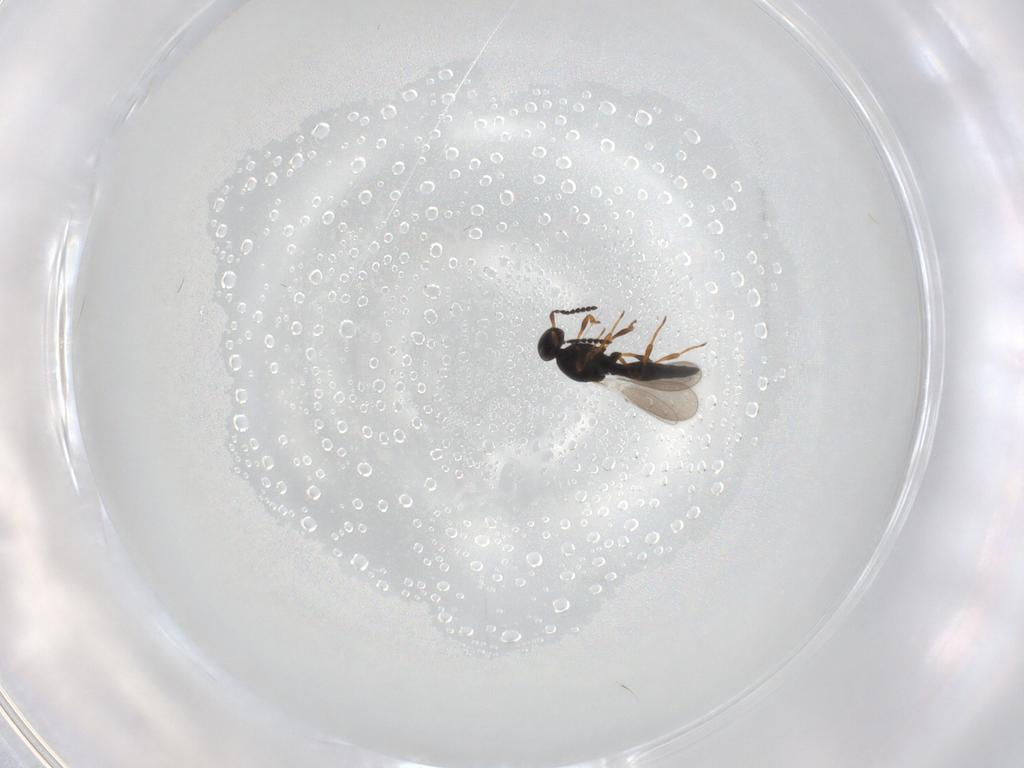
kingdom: Animalia
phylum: Arthropoda
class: Insecta
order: Hymenoptera
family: Platygastridae
